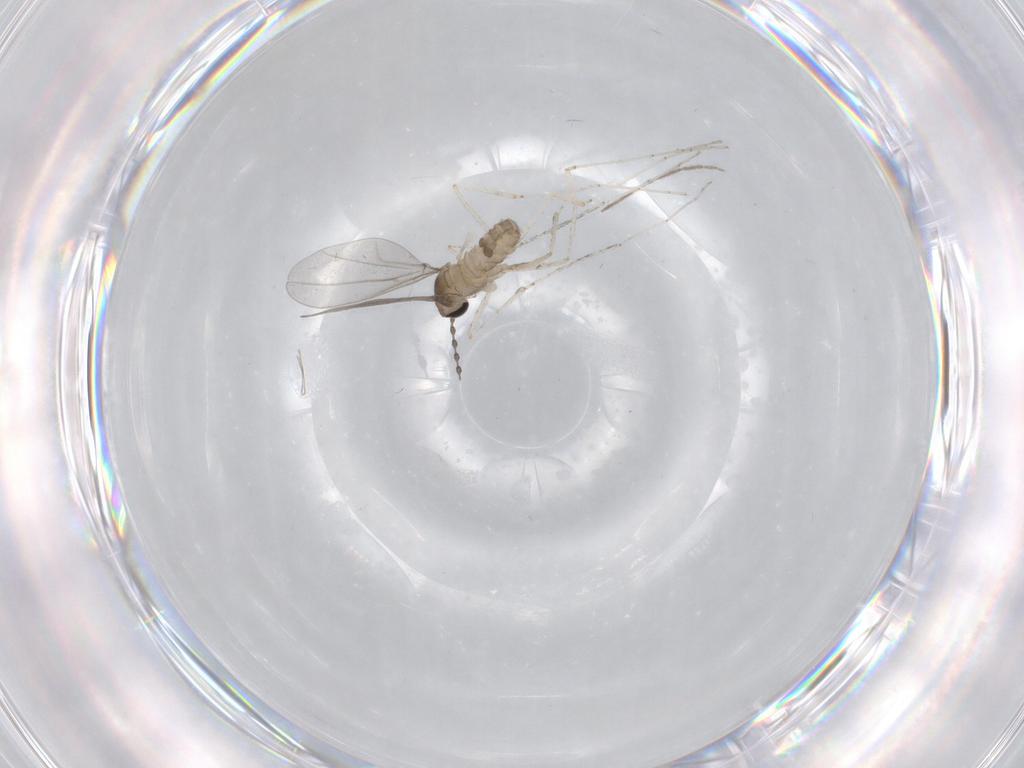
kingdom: Animalia
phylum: Arthropoda
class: Insecta
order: Diptera
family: Chironomidae
